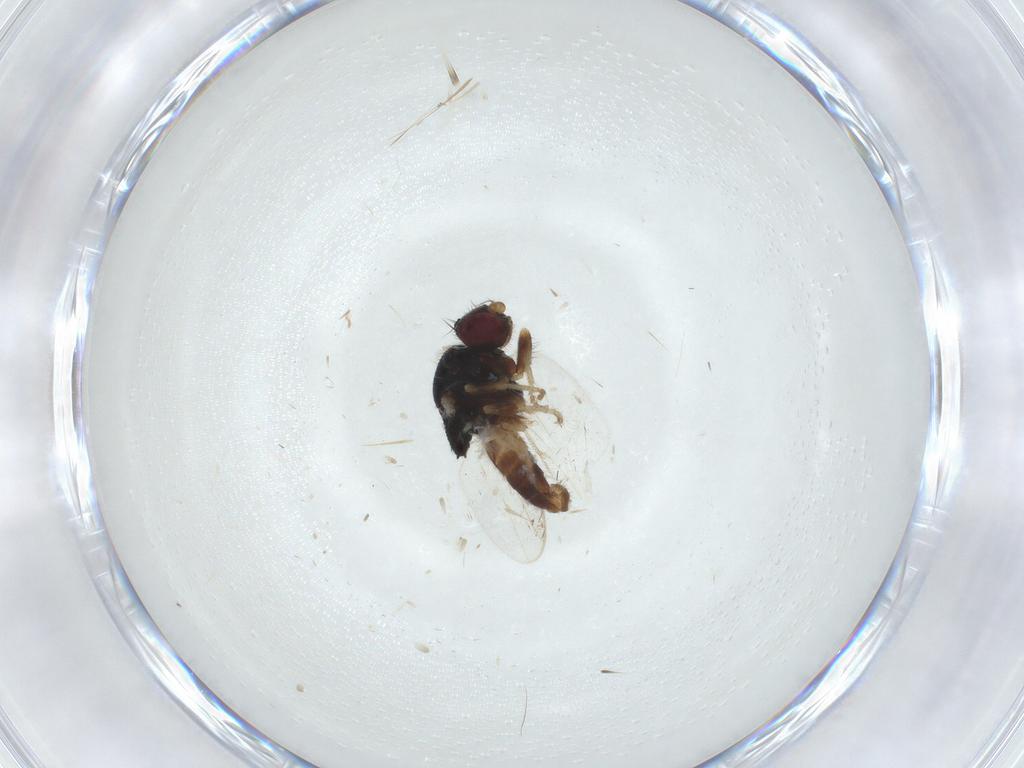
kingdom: Animalia
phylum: Arthropoda
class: Insecta
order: Diptera
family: Chloropidae
